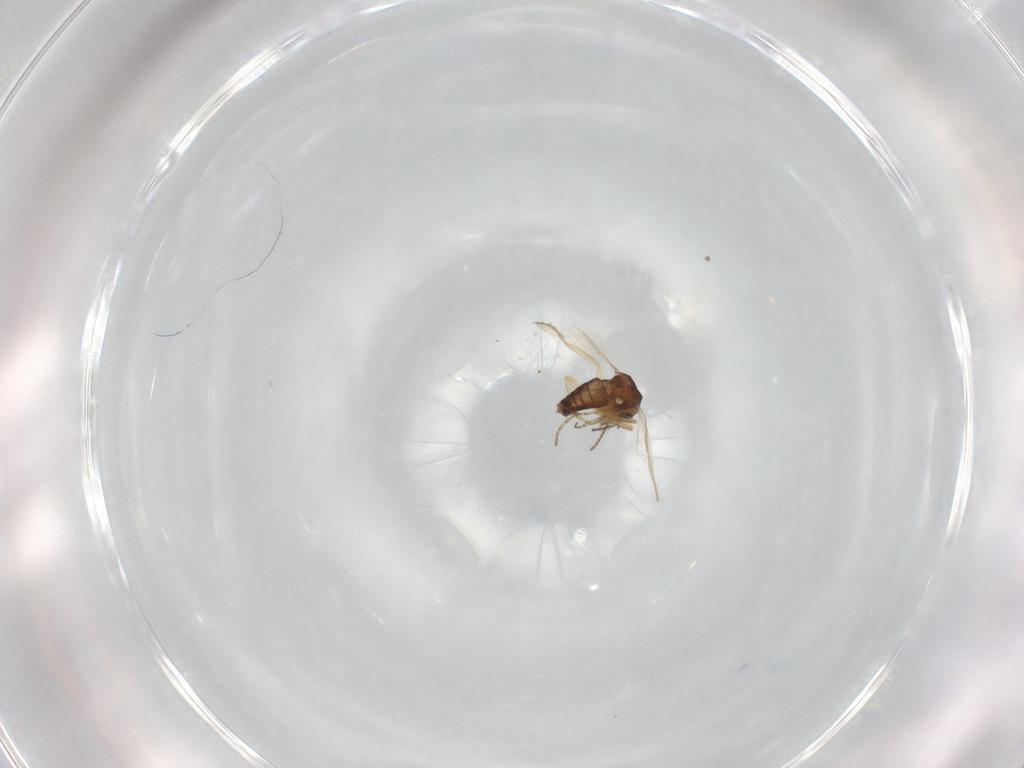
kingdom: Animalia
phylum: Arthropoda
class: Insecta
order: Diptera
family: Ceratopogonidae
